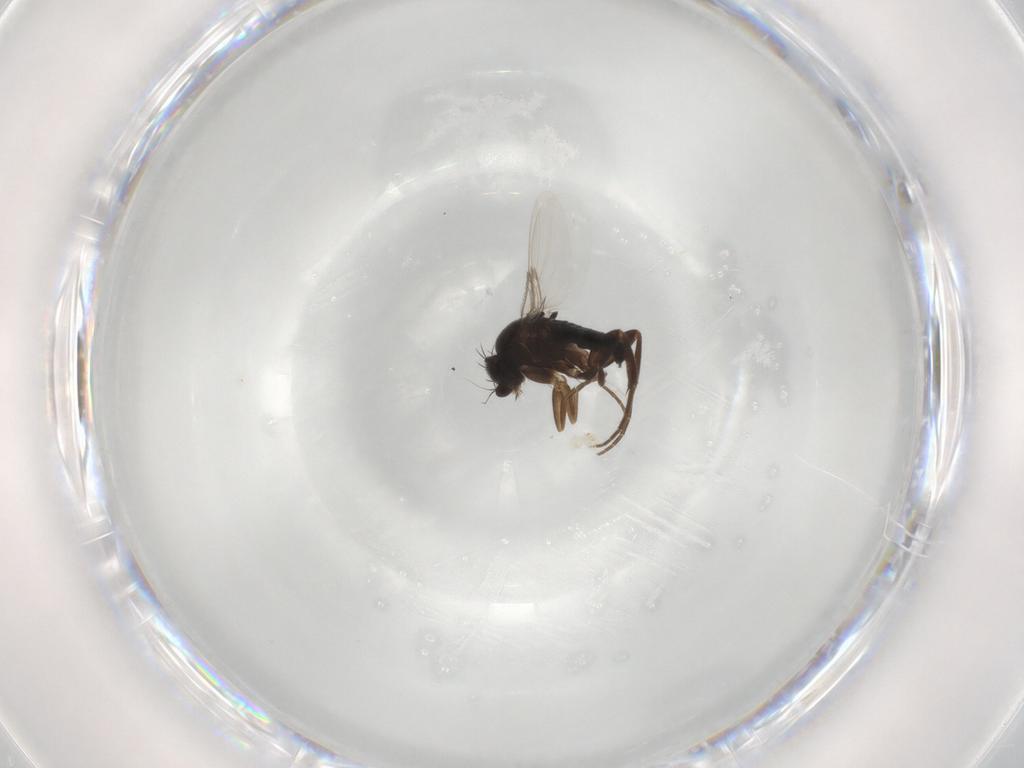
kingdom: Animalia
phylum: Arthropoda
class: Insecta
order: Diptera
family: Phoridae
